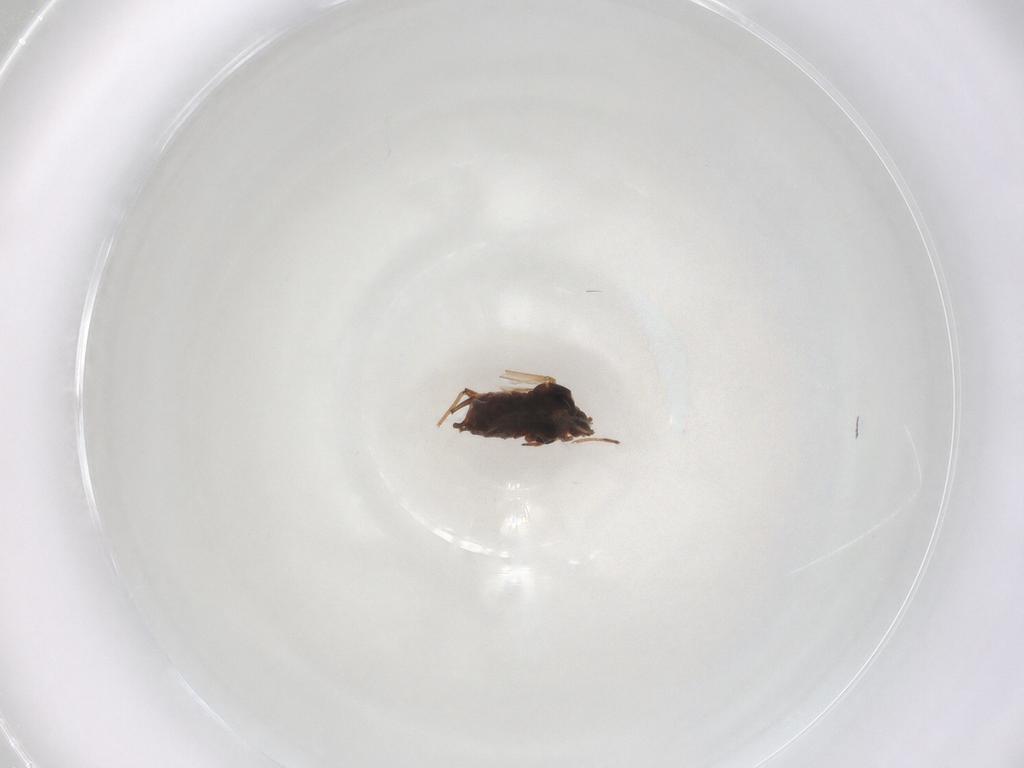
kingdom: Animalia
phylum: Arthropoda
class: Insecta
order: Hemiptera
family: Aphididae
